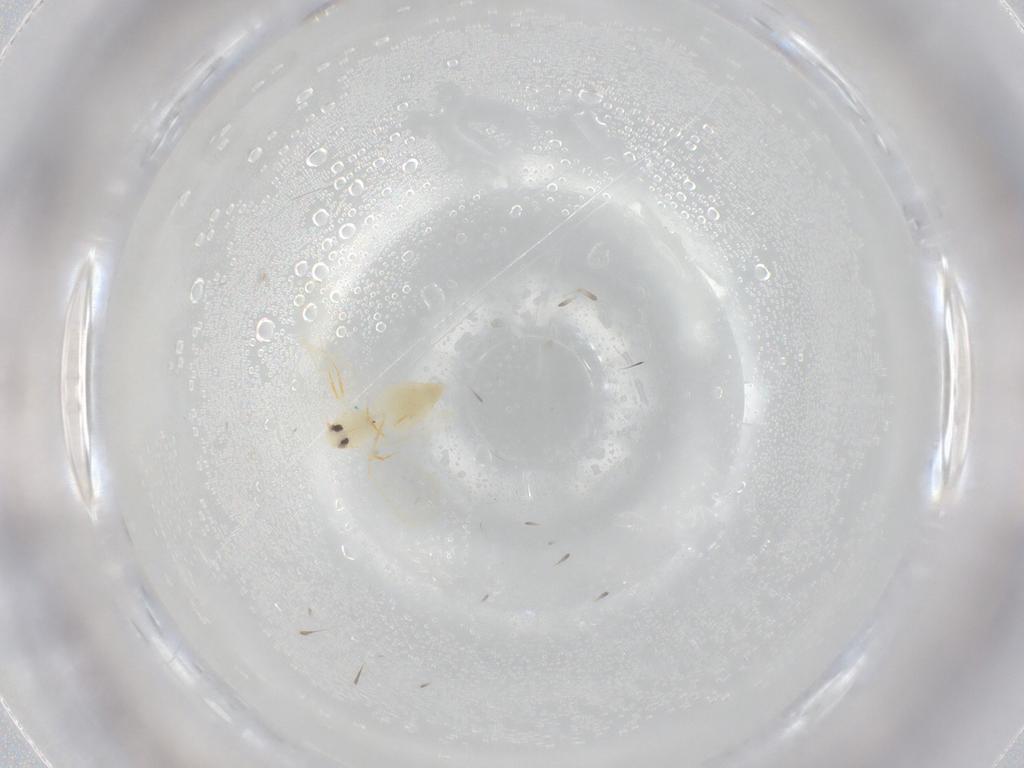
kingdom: Animalia
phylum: Arthropoda
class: Insecta
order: Hemiptera
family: Aleyrodidae
